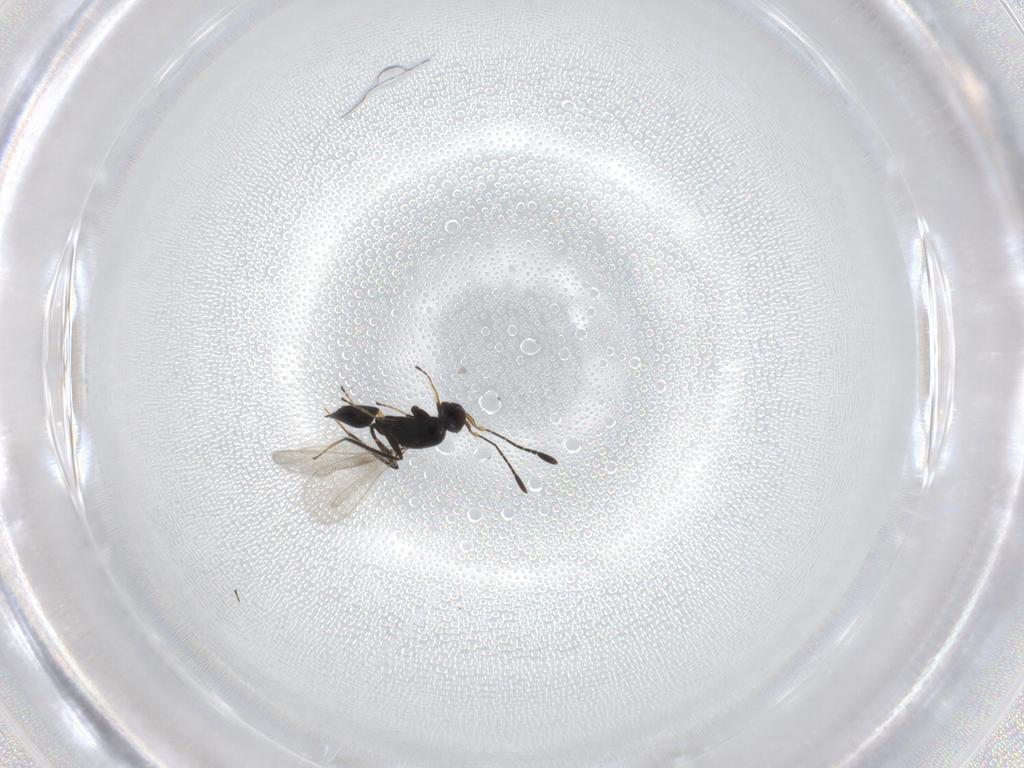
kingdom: Animalia
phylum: Arthropoda
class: Insecta
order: Hymenoptera
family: Mymaridae
